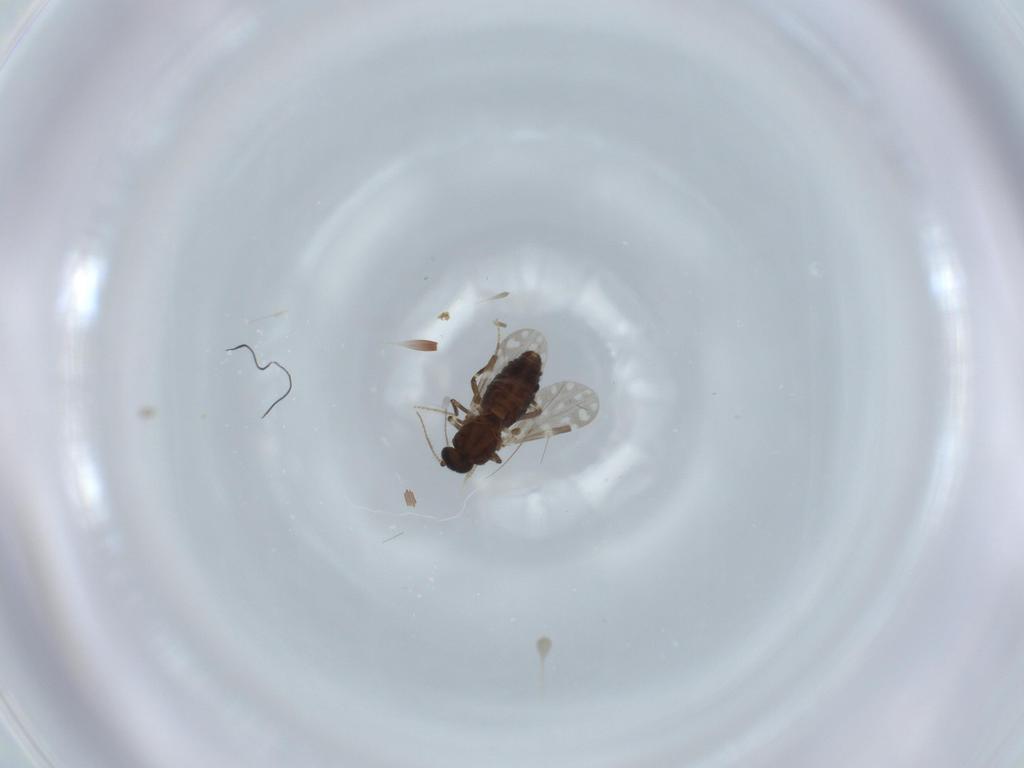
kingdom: Animalia
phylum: Arthropoda
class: Insecta
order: Diptera
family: Ceratopogonidae
